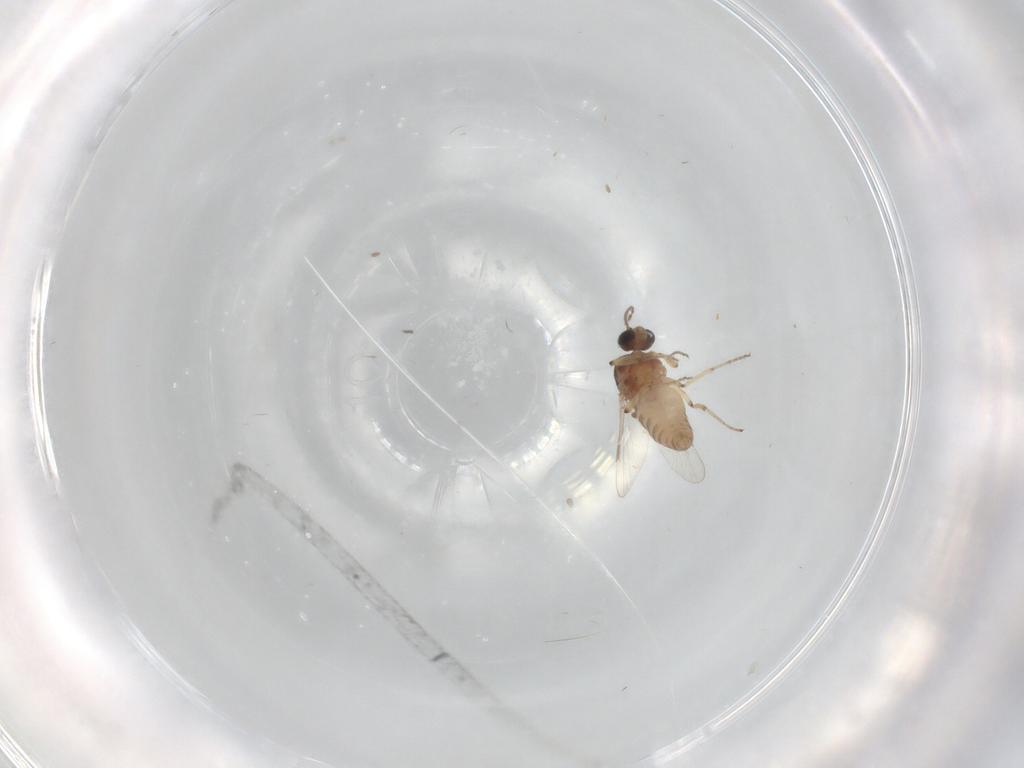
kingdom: Animalia
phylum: Arthropoda
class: Insecta
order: Diptera
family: Ceratopogonidae
